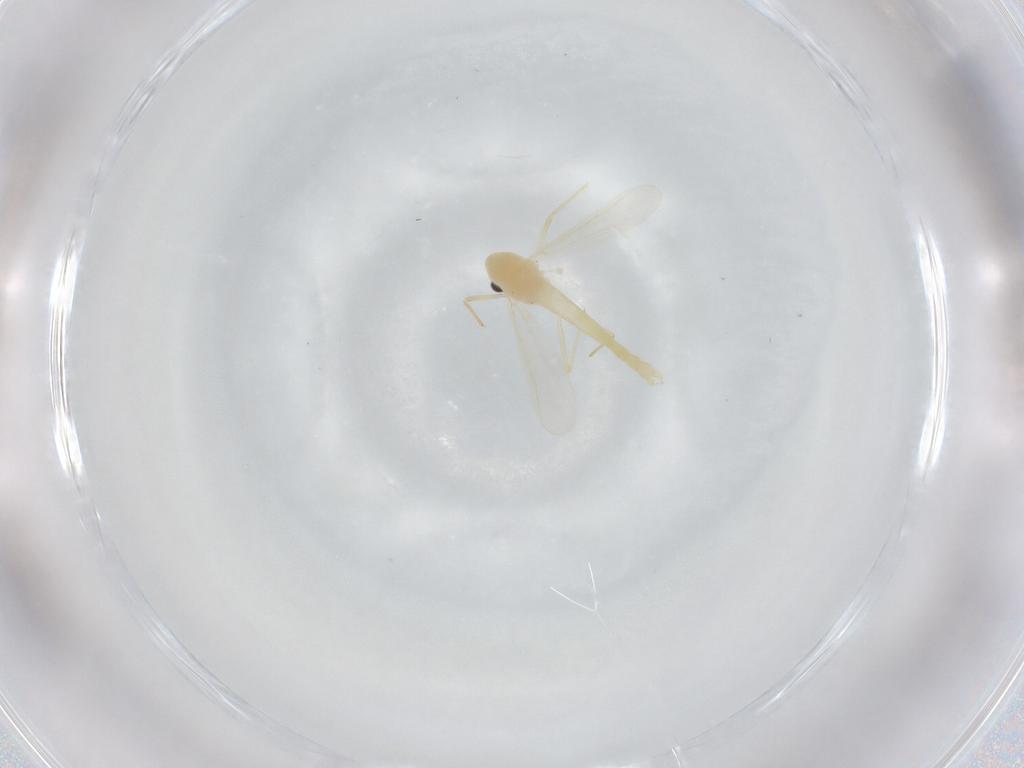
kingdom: Animalia
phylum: Arthropoda
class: Insecta
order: Diptera
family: Chironomidae
